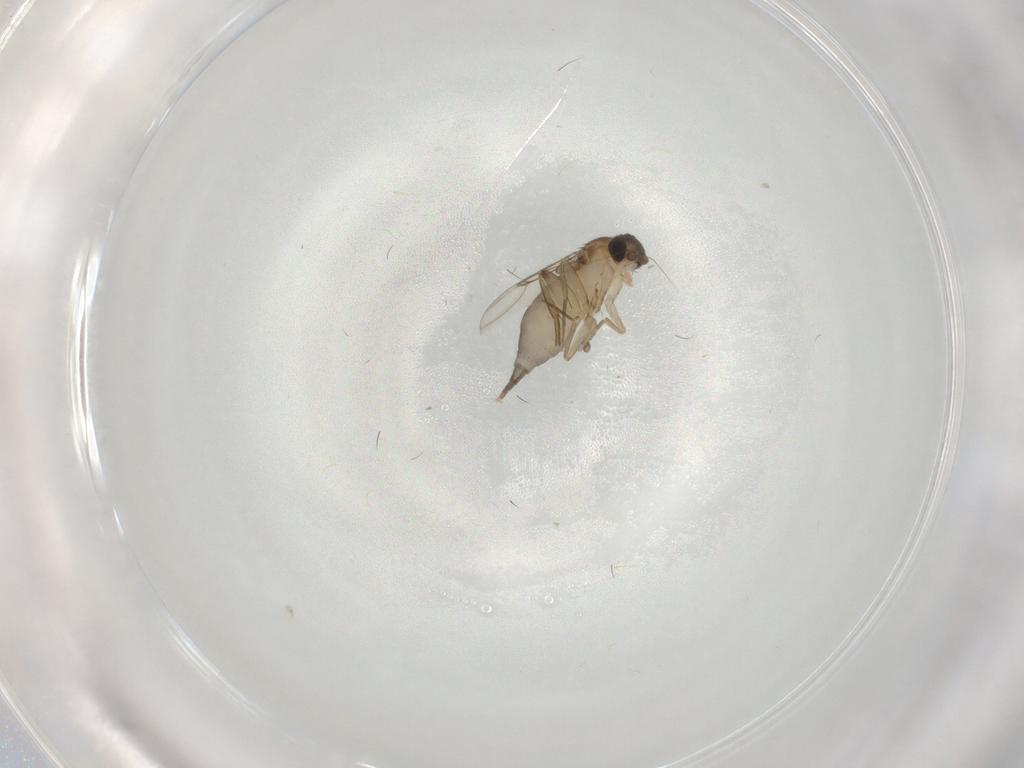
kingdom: Animalia
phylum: Arthropoda
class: Insecta
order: Diptera
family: Phoridae
